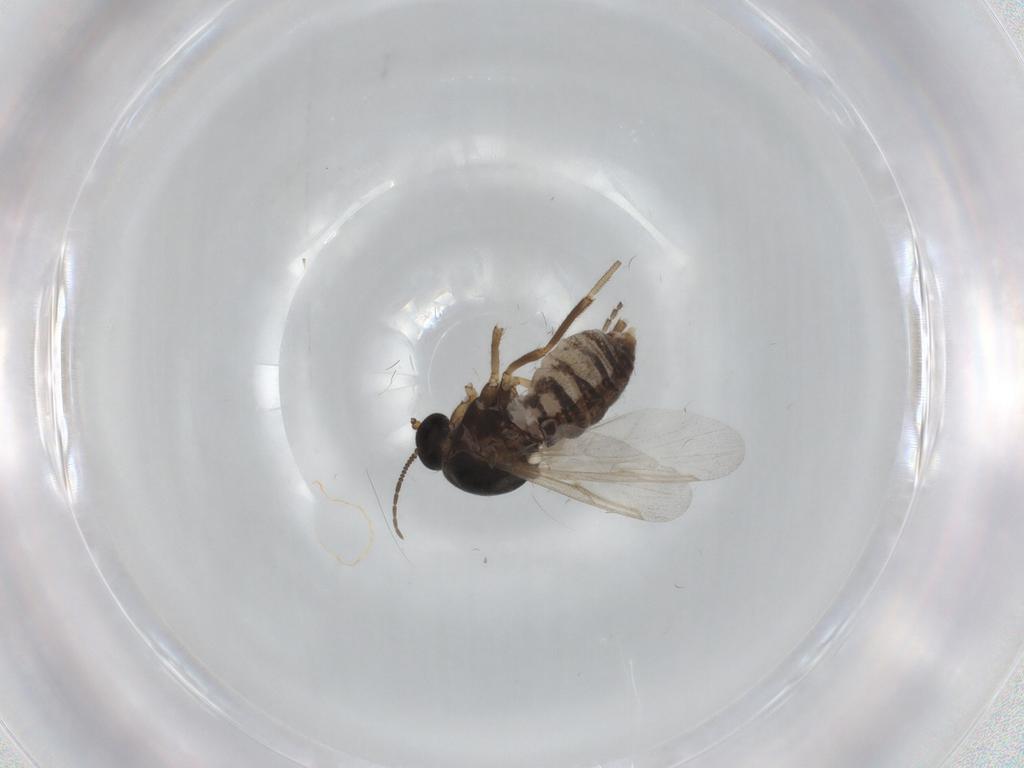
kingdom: Animalia
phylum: Arthropoda
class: Insecta
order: Diptera
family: Ceratopogonidae
